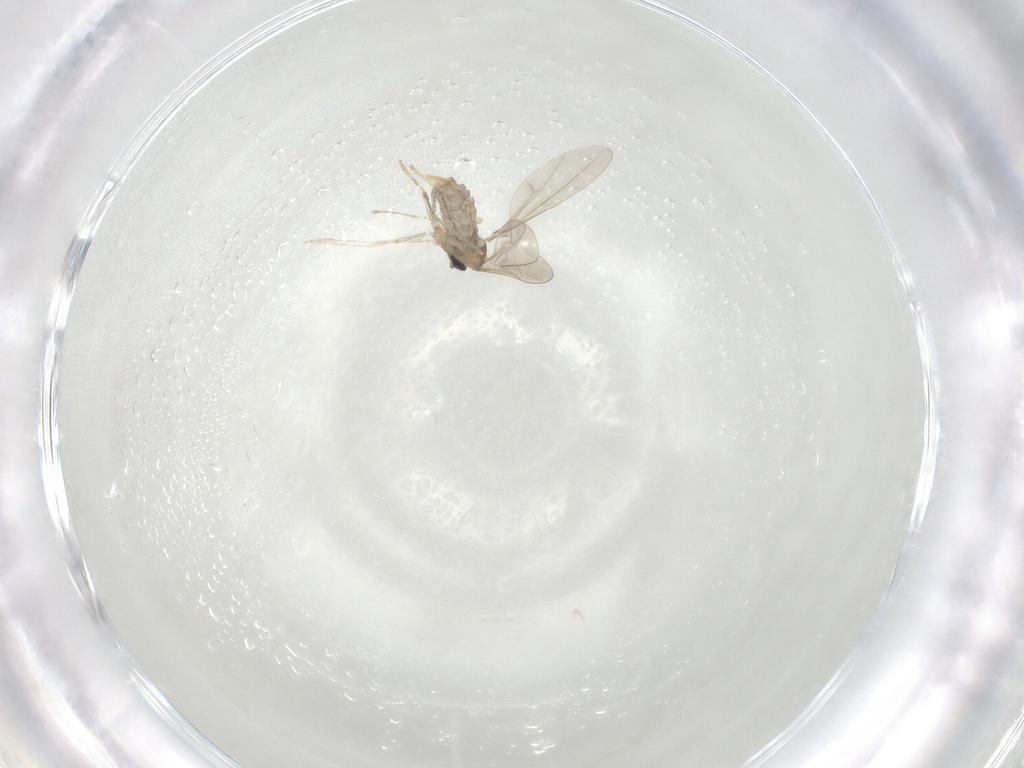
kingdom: Animalia
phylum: Arthropoda
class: Insecta
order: Diptera
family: Cecidomyiidae
